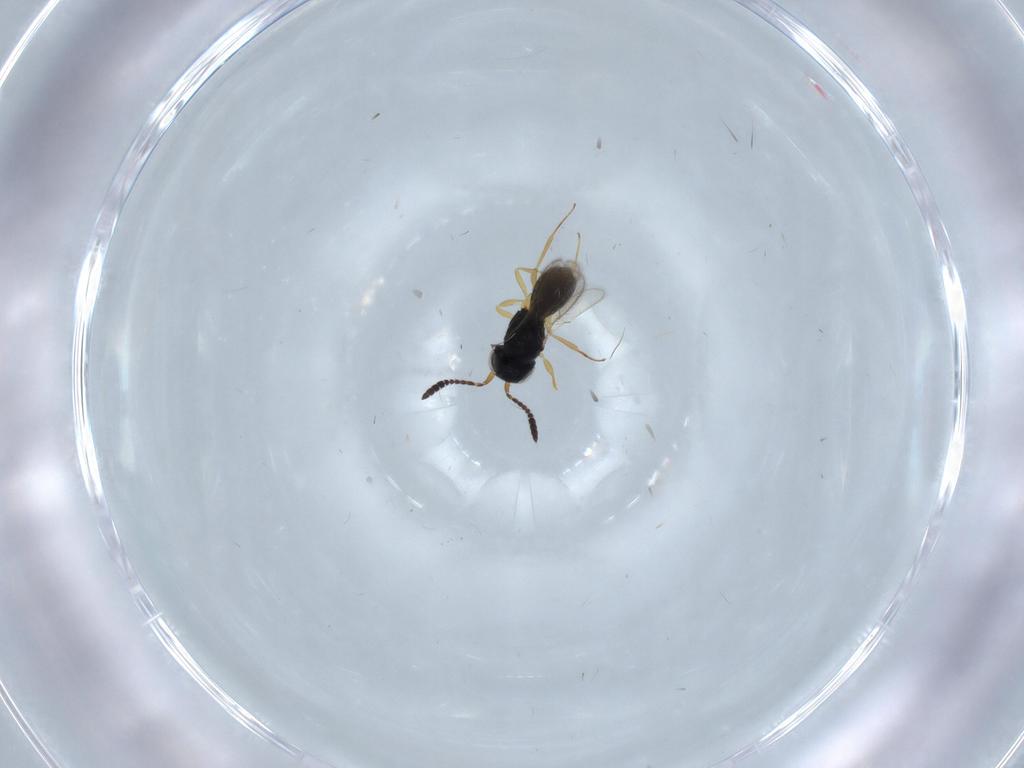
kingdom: Animalia
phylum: Arthropoda
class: Insecta
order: Hymenoptera
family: Scelionidae
